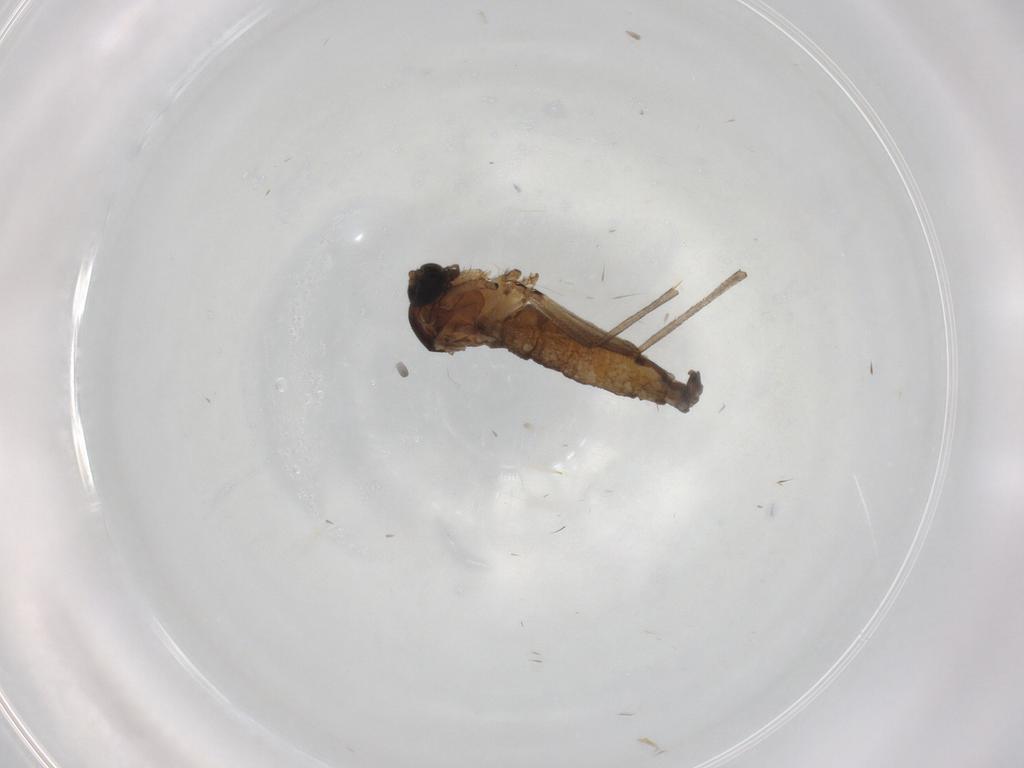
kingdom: Animalia
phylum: Arthropoda
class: Insecta
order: Diptera
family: Sciaridae
